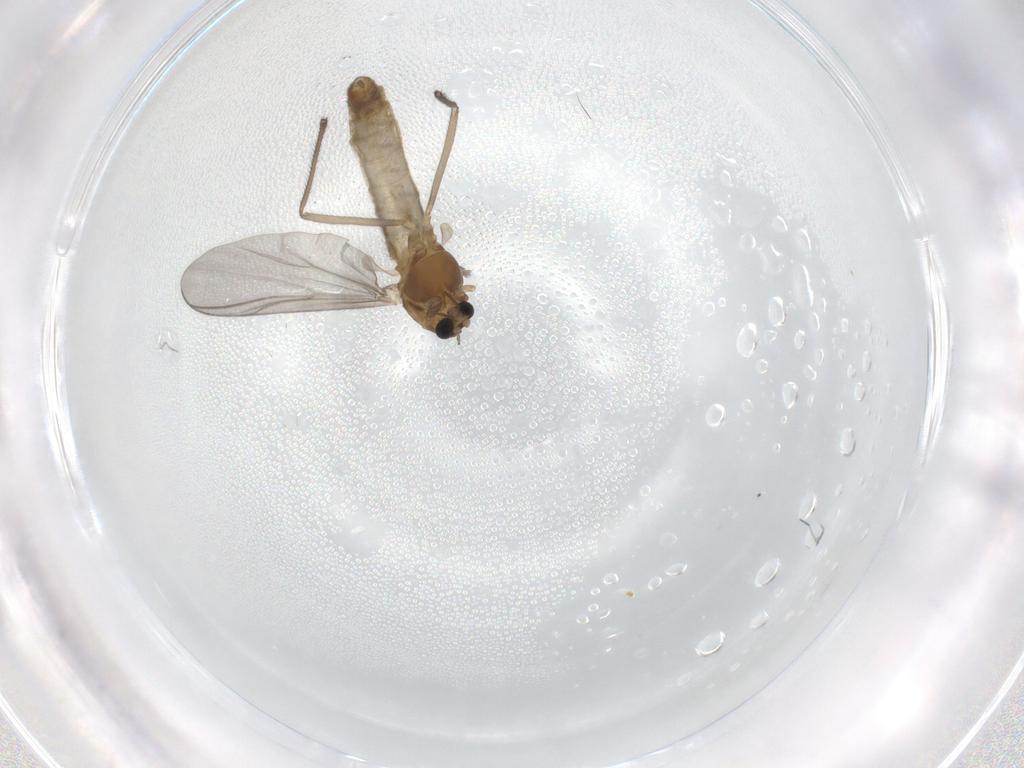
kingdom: Animalia
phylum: Arthropoda
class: Insecta
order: Diptera
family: Chironomidae
